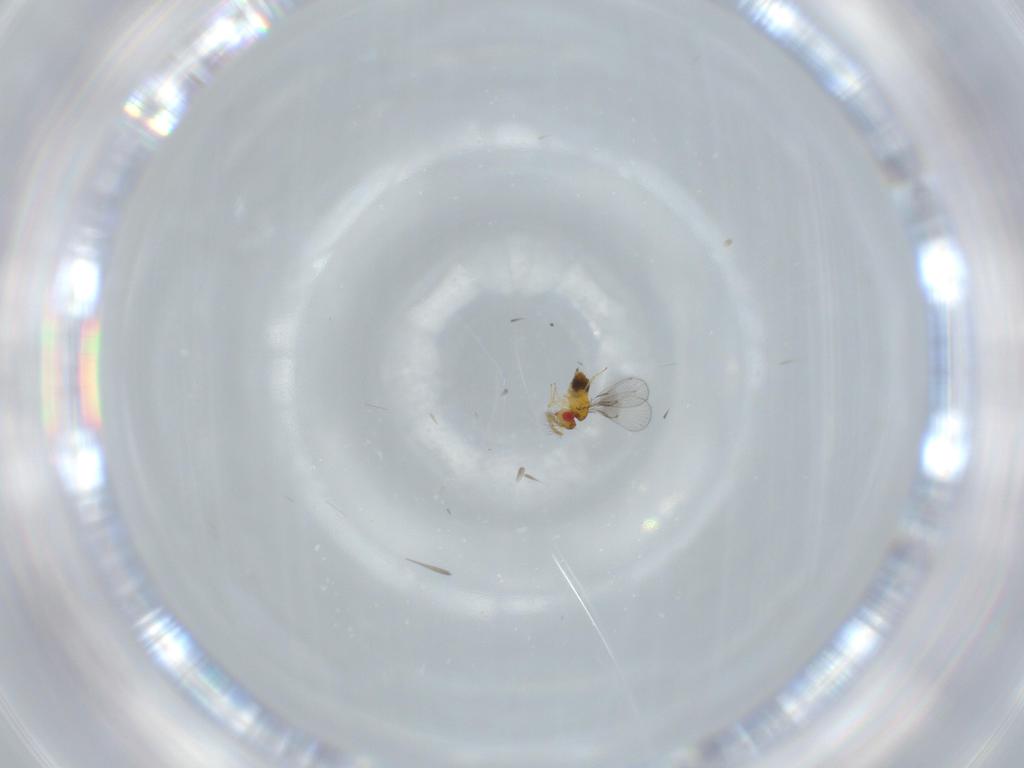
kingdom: Animalia
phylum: Arthropoda
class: Insecta
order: Hymenoptera
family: Trichogrammatidae
